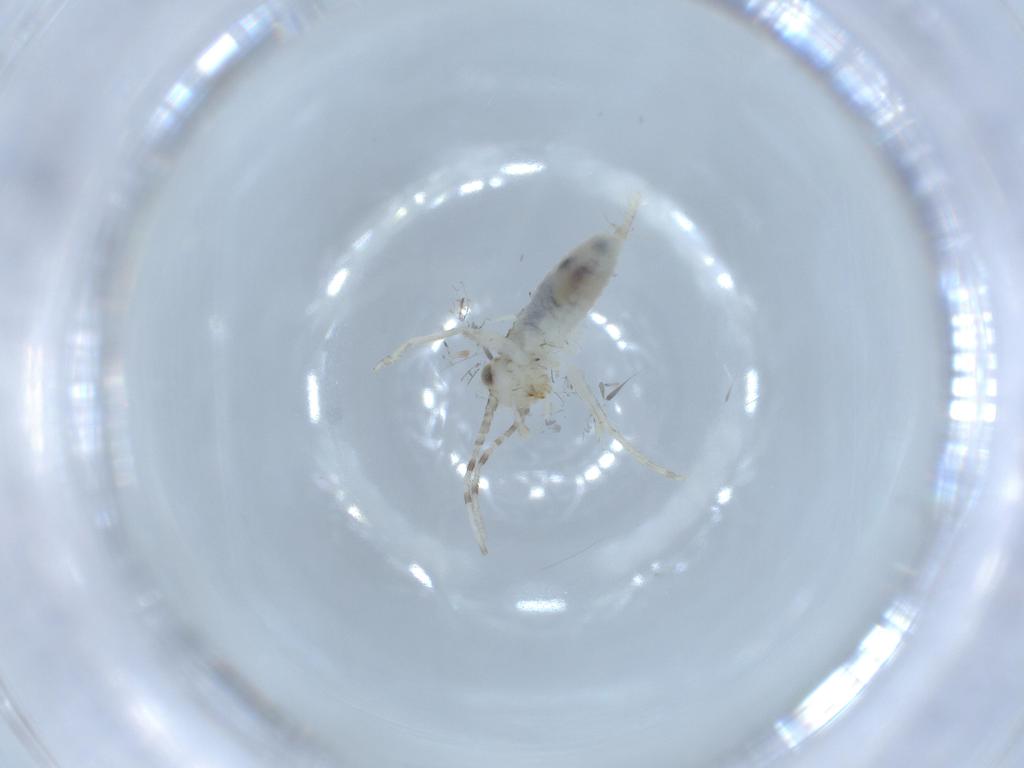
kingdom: Animalia
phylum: Arthropoda
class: Insecta
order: Orthoptera
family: Trigonidiidae
